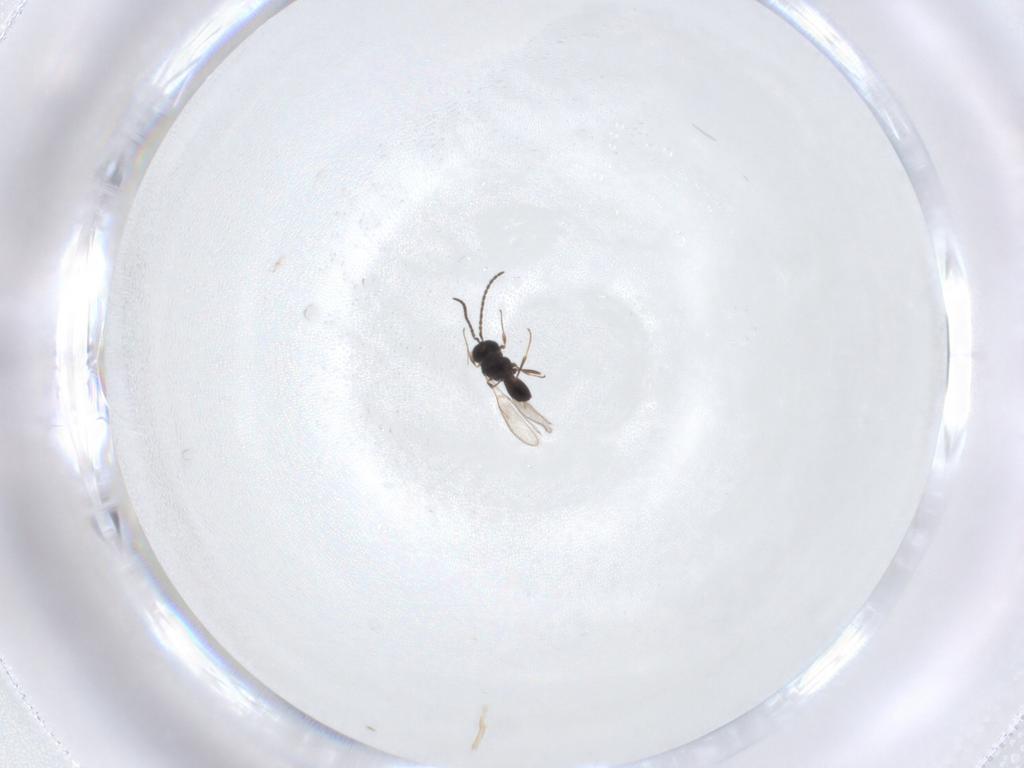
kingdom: Animalia
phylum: Arthropoda
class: Insecta
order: Hymenoptera
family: Scelionidae
